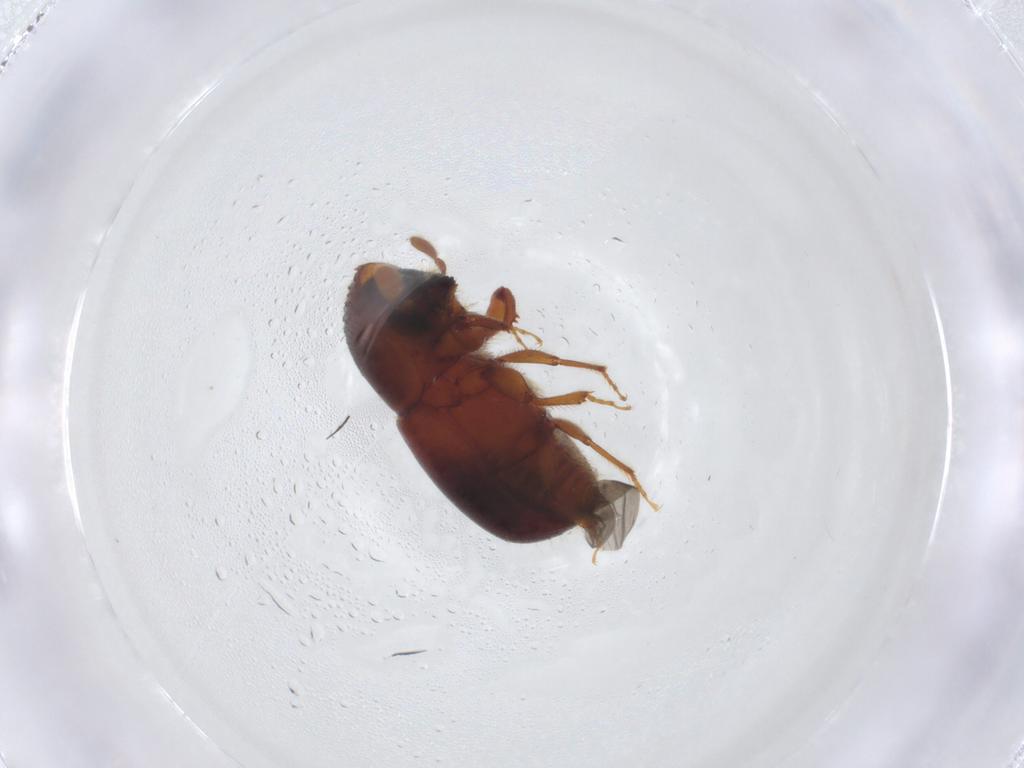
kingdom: Animalia
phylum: Arthropoda
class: Insecta
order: Coleoptera
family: Curculionidae
